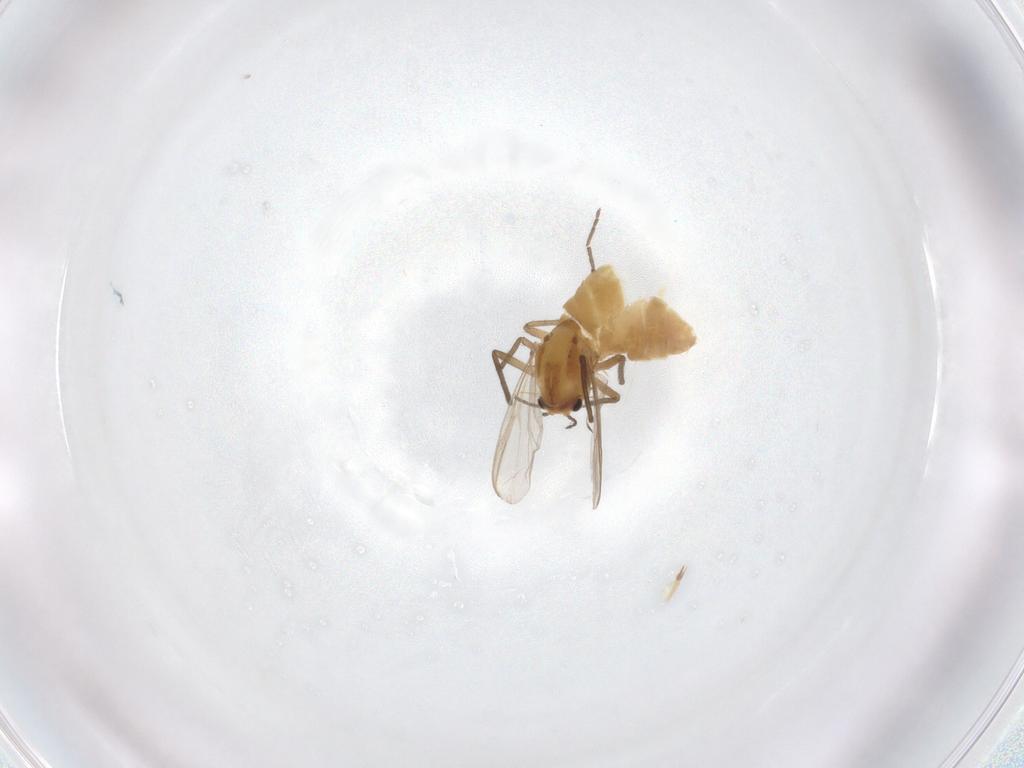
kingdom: Animalia
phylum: Arthropoda
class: Insecta
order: Diptera
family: Chironomidae
